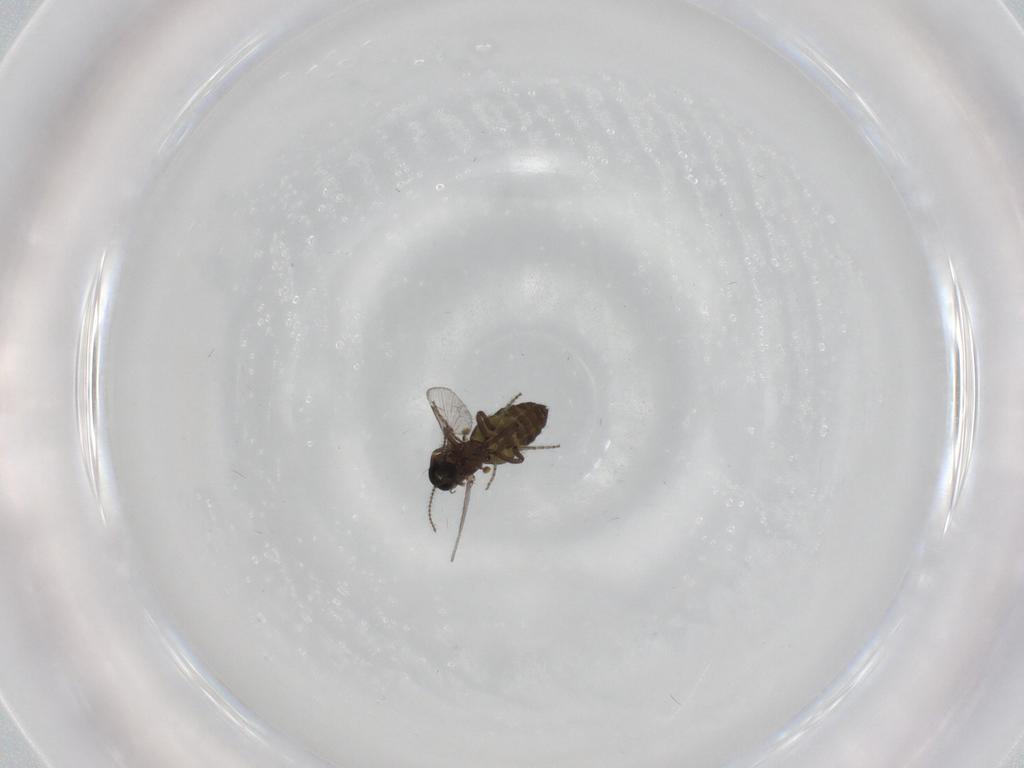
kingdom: Animalia
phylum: Arthropoda
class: Insecta
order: Diptera
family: Ceratopogonidae
